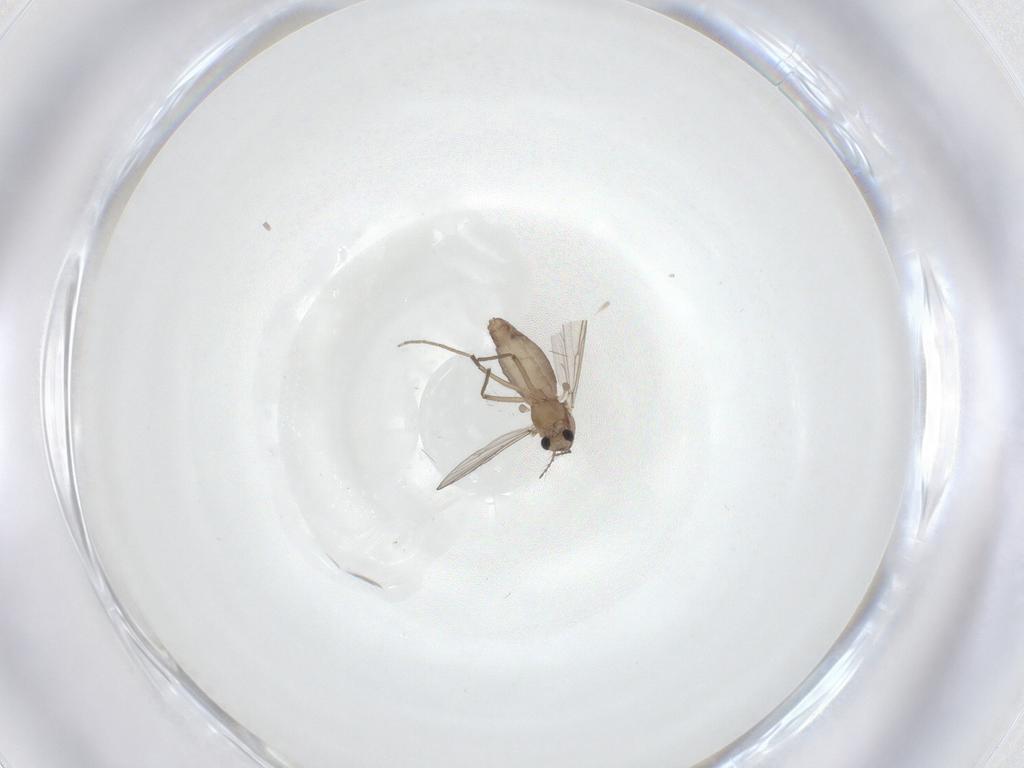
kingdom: Animalia
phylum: Arthropoda
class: Insecta
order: Diptera
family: Chironomidae
